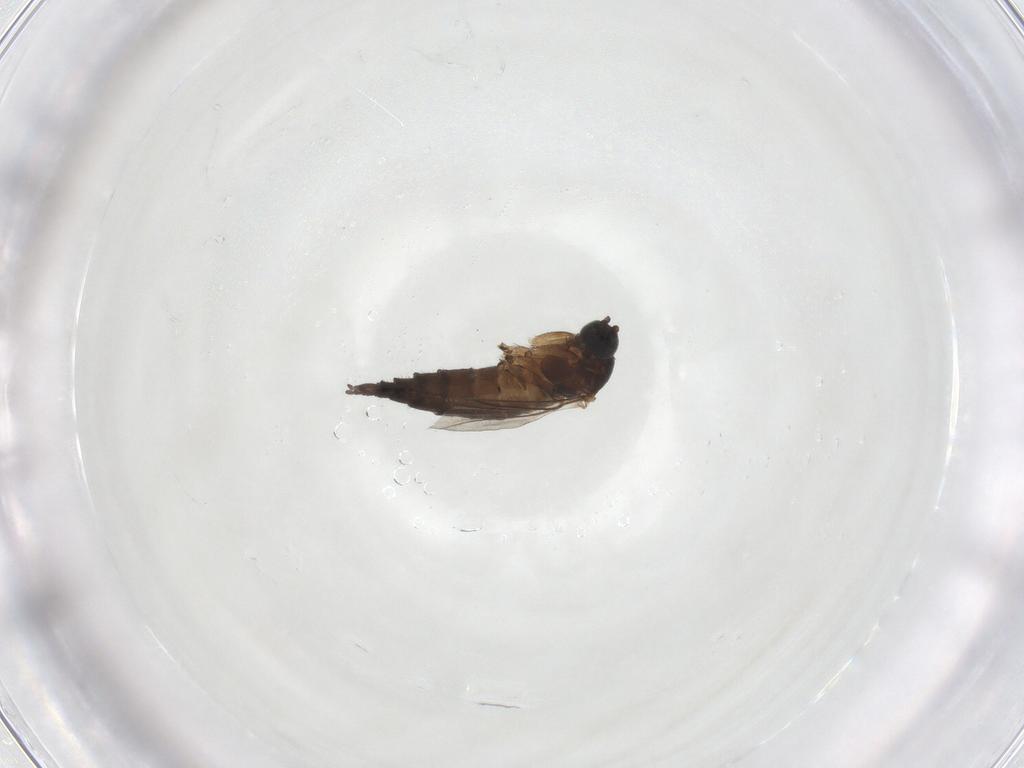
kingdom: Animalia
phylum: Arthropoda
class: Insecta
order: Diptera
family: Sciaridae
